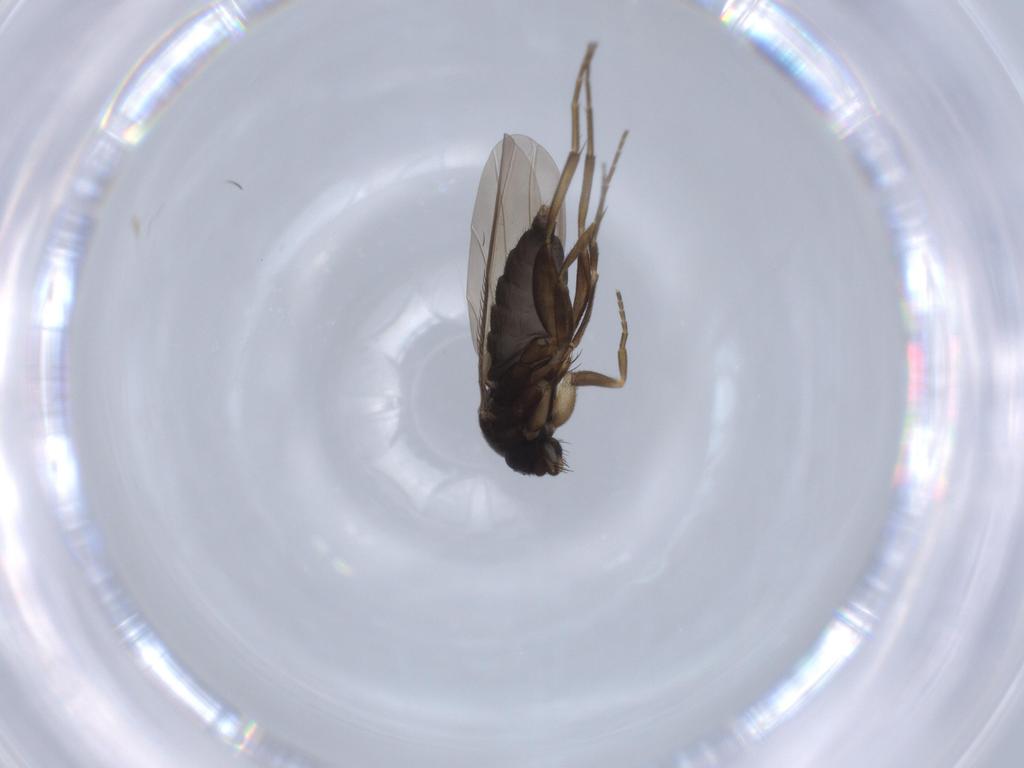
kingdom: Animalia
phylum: Arthropoda
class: Insecta
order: Diptera
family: Phoridae
